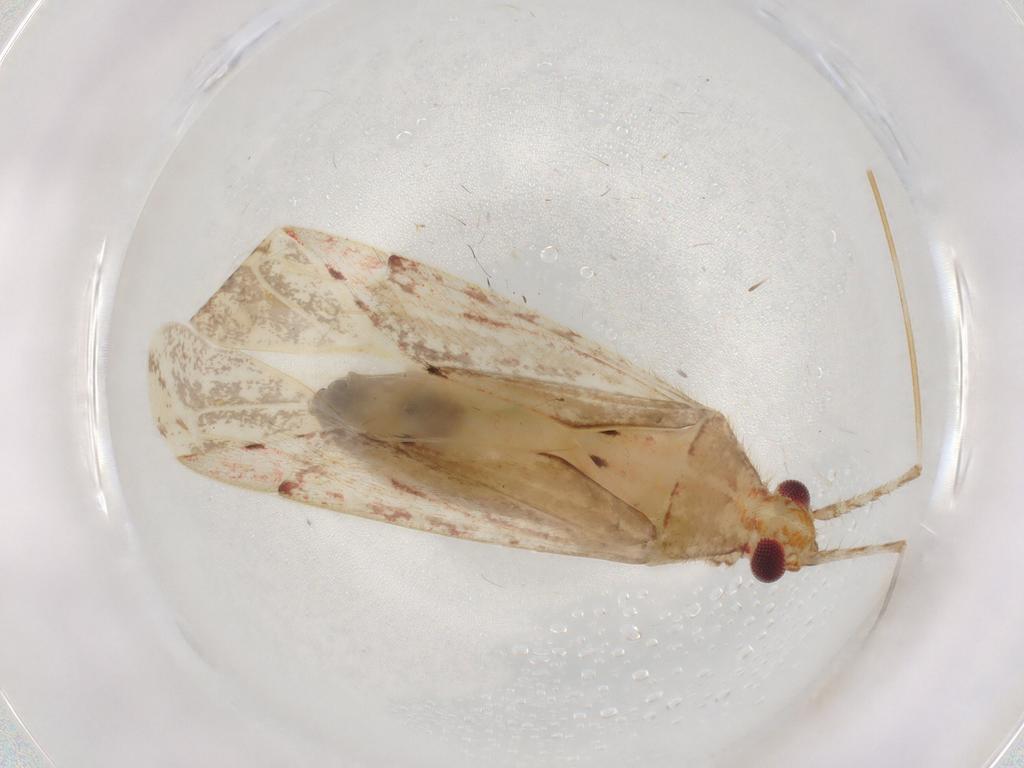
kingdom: Animalia
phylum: Arthropoda
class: Insecta
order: Hemiptera
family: Miridae
